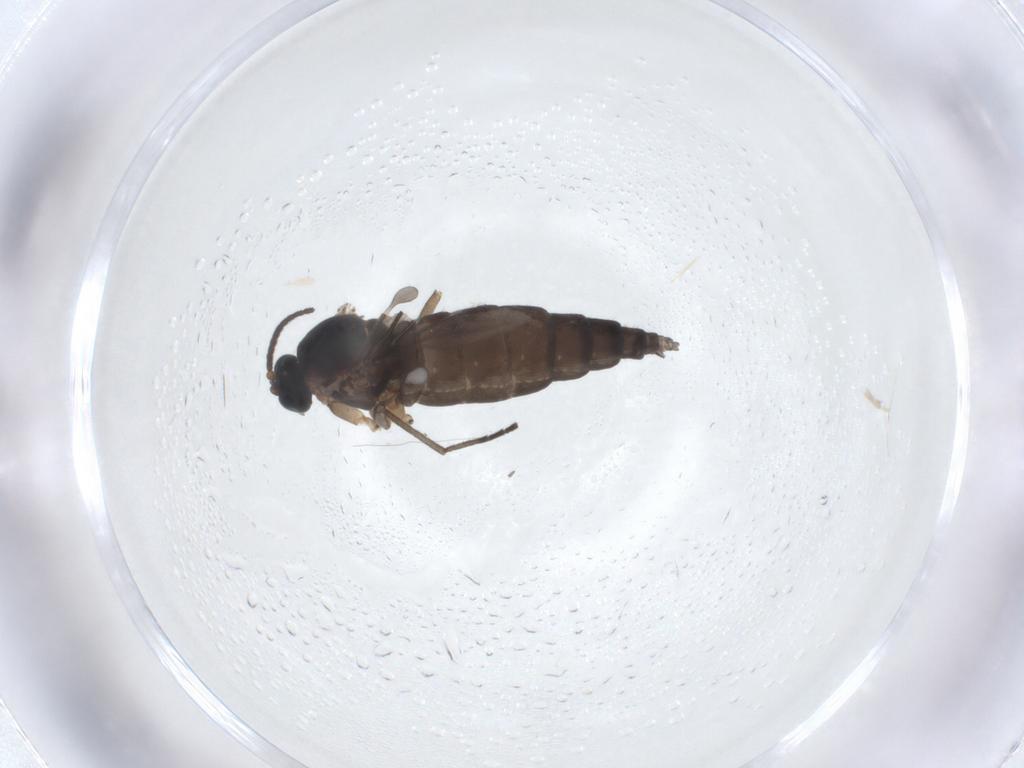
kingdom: Animalia
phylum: Arthropoda
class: Insecta
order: Diptera
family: Sciaridae
